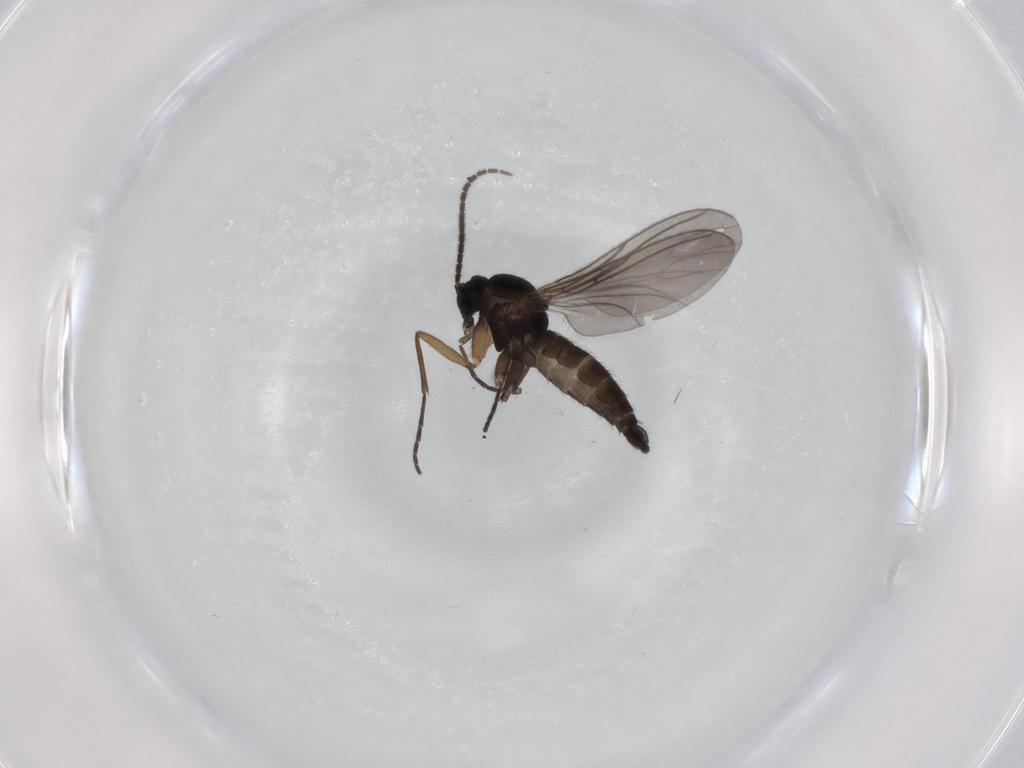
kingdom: Animalia
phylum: Arthropoda
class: Insecta
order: Diptera
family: Sciaridae
